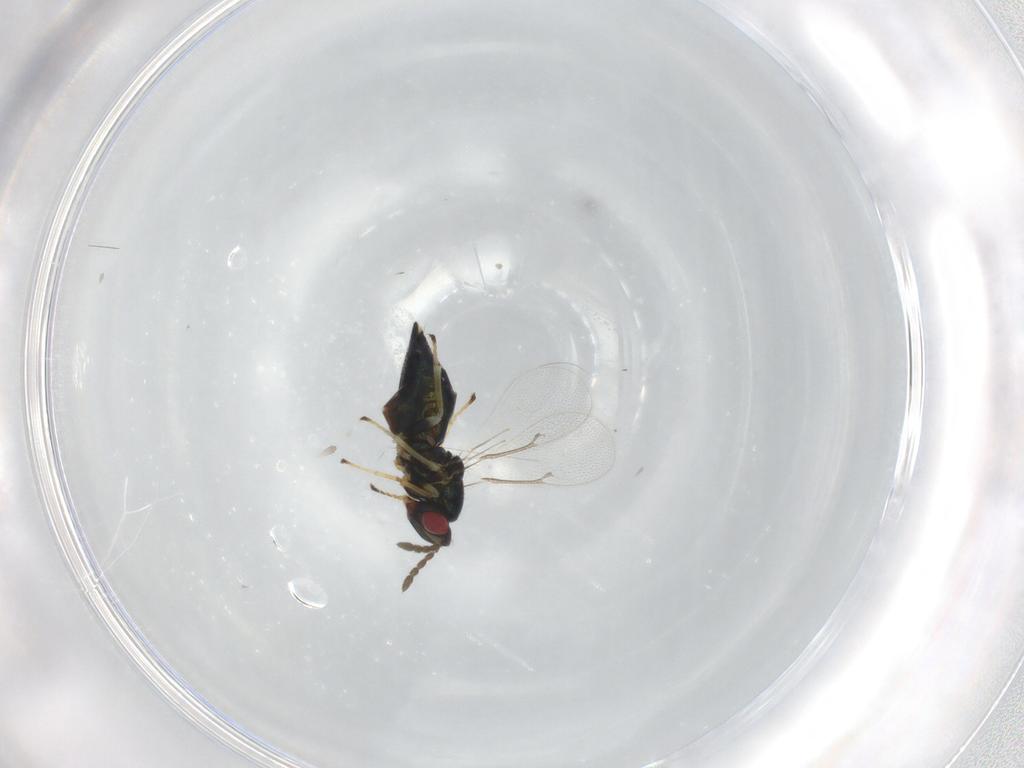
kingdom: Animalia
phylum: Arthropoda
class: Insecta
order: Hymenoptera
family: Eulophidae
